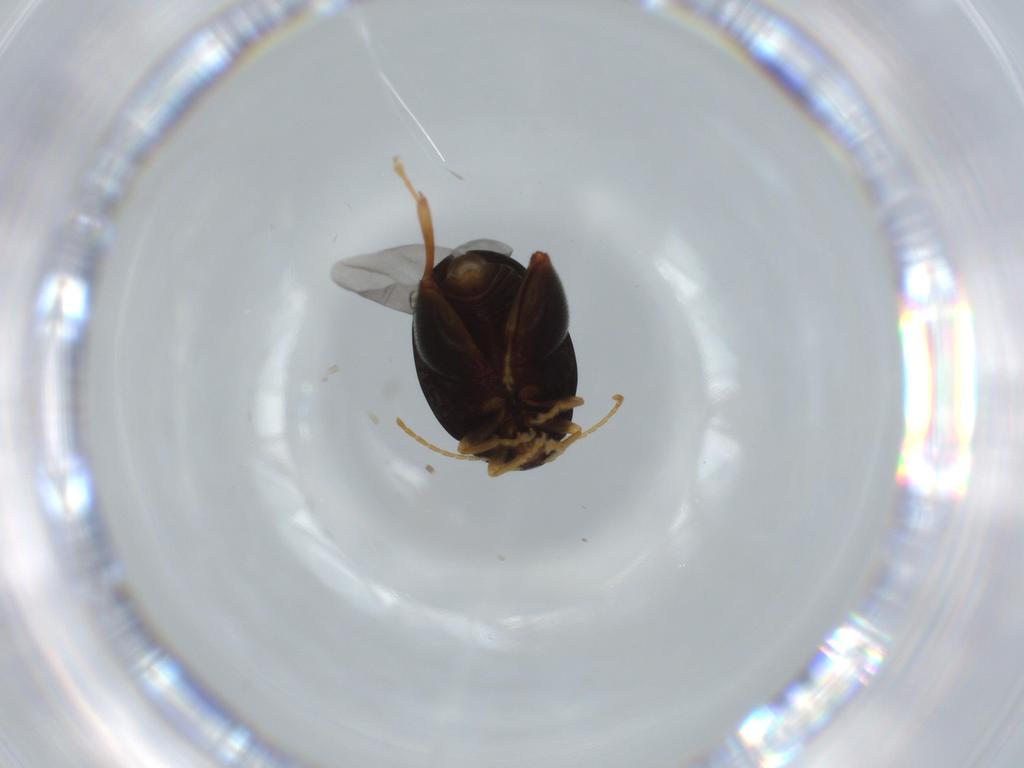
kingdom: Animalia
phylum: Arthropoda
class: Insecta
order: Coleoptera
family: Chrysomelidae
